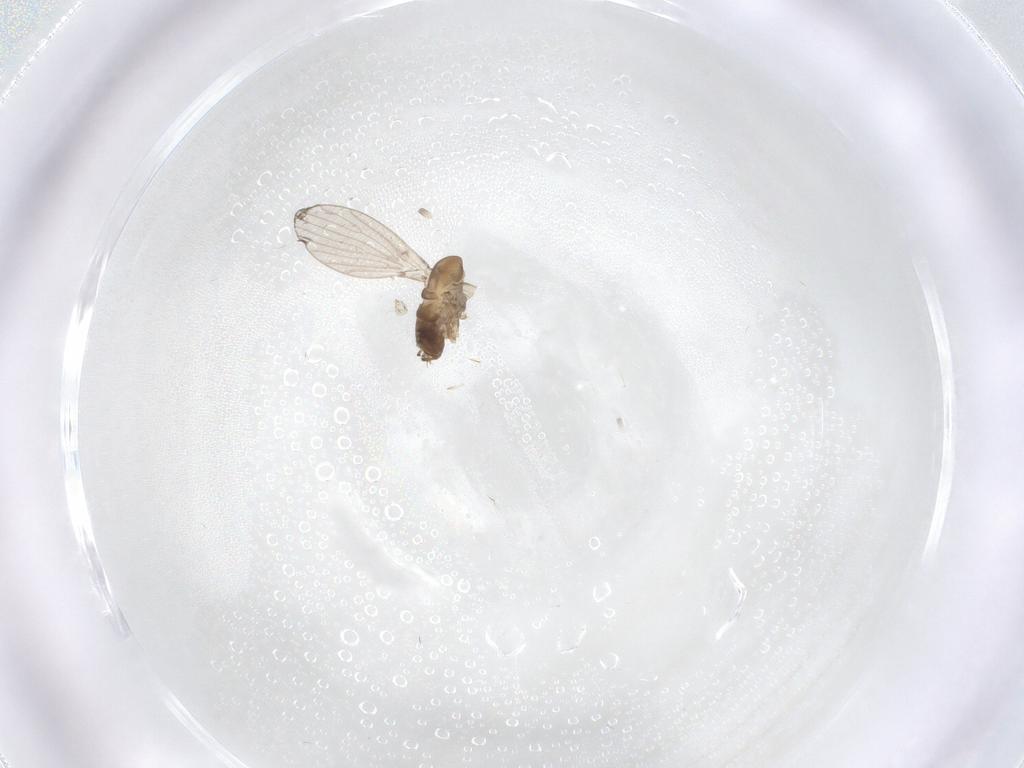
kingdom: Animalia
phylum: Arthropoda
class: Insecta
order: Diptera
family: Psychodidae
